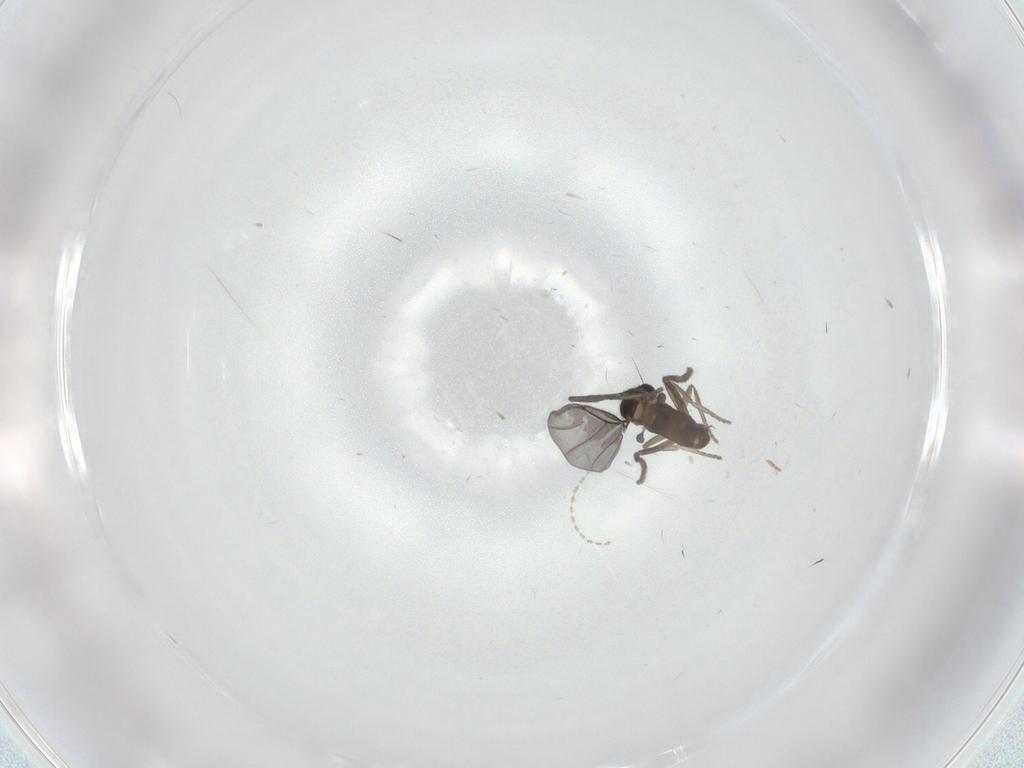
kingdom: Animalia
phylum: Arthropoda
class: Insecta
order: Diptera
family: Phoridae
